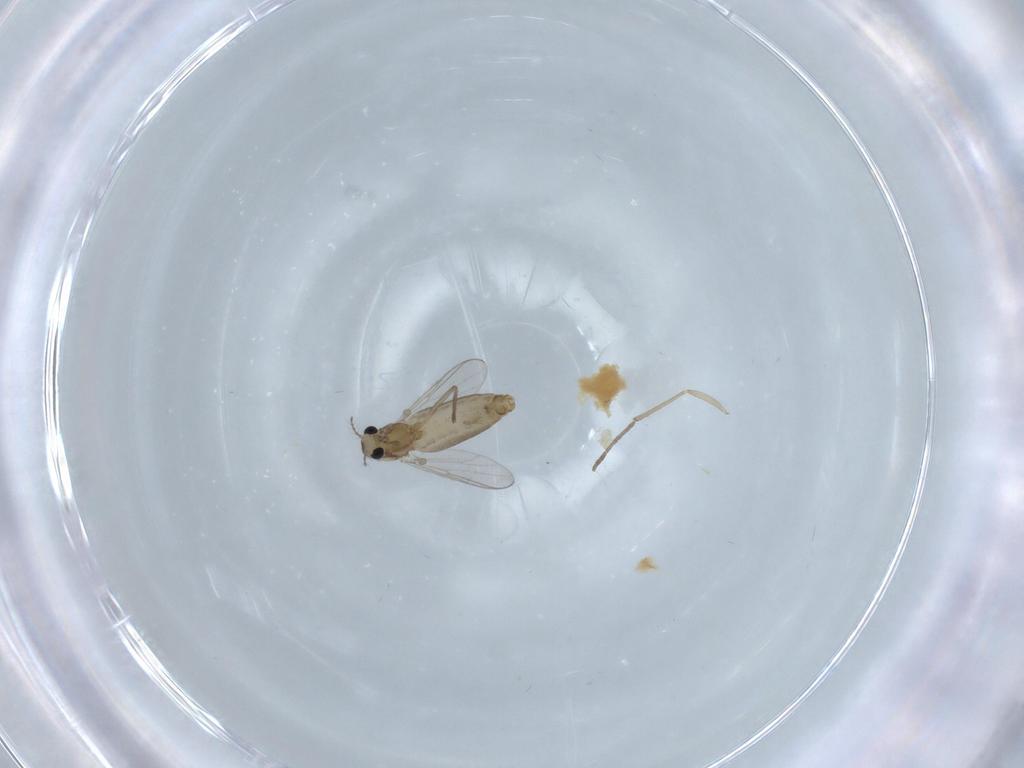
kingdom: Animalia
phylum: Arthropoda
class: Insecta
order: Diptera
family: Chironomidae
